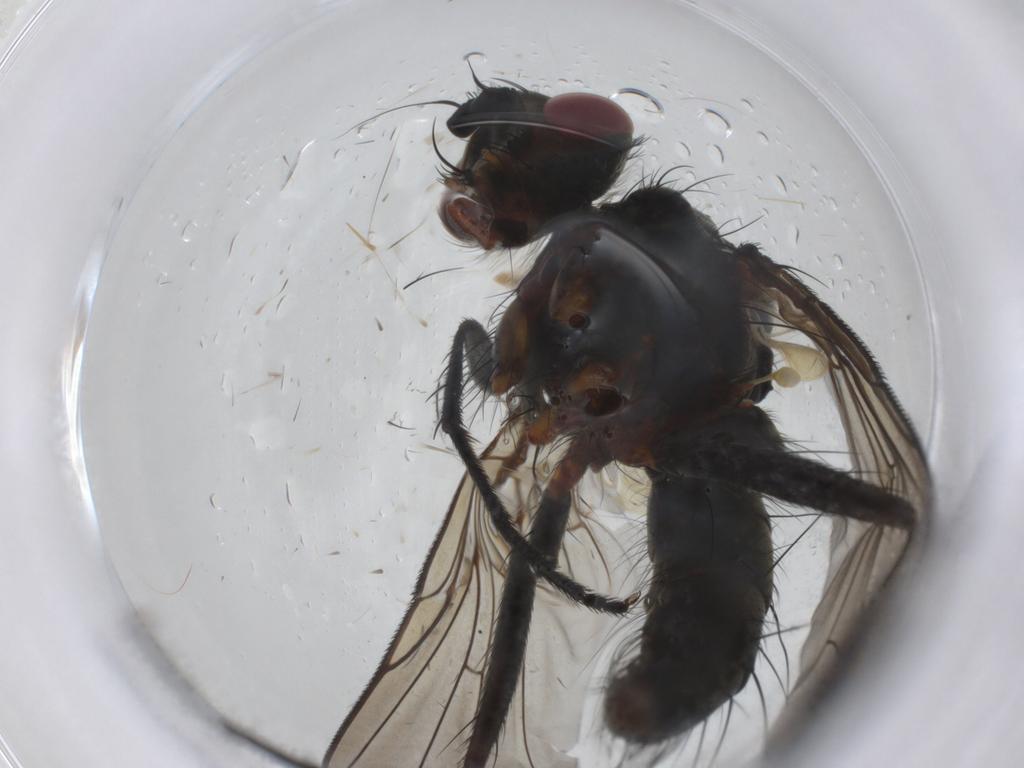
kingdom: Animalia
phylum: Arthropoda
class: Insecta
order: Diptera
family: Tachinidae
